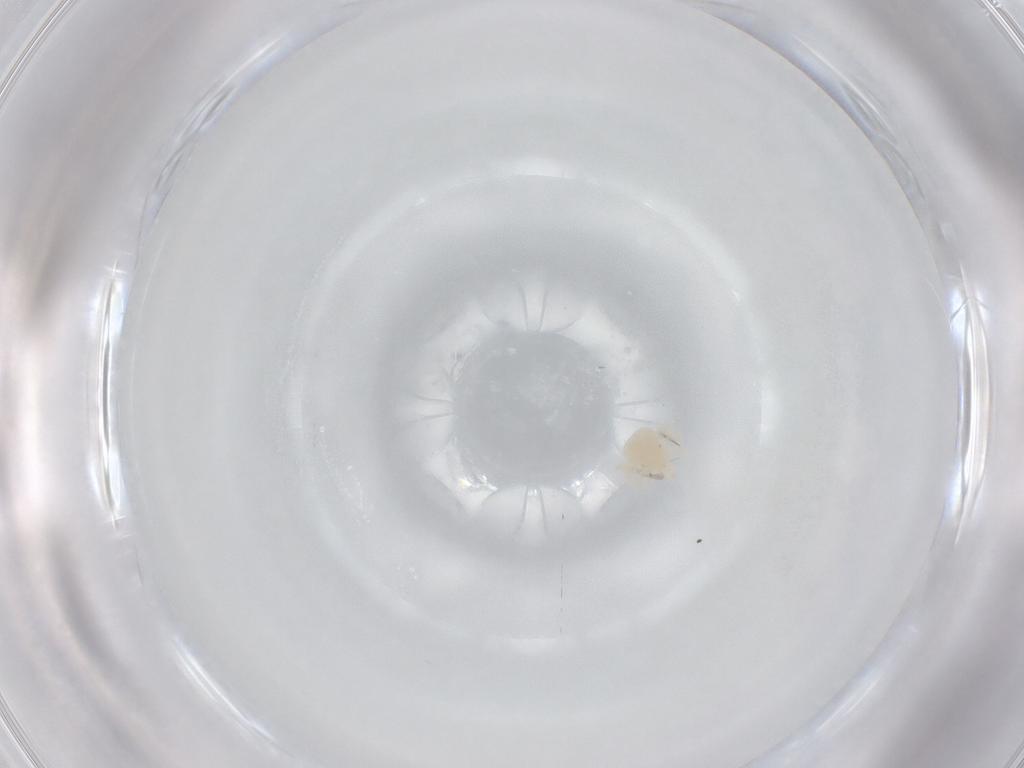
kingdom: Animalia
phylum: Arthropoda
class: Arachnida
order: Trombidiformes
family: Anystidae
